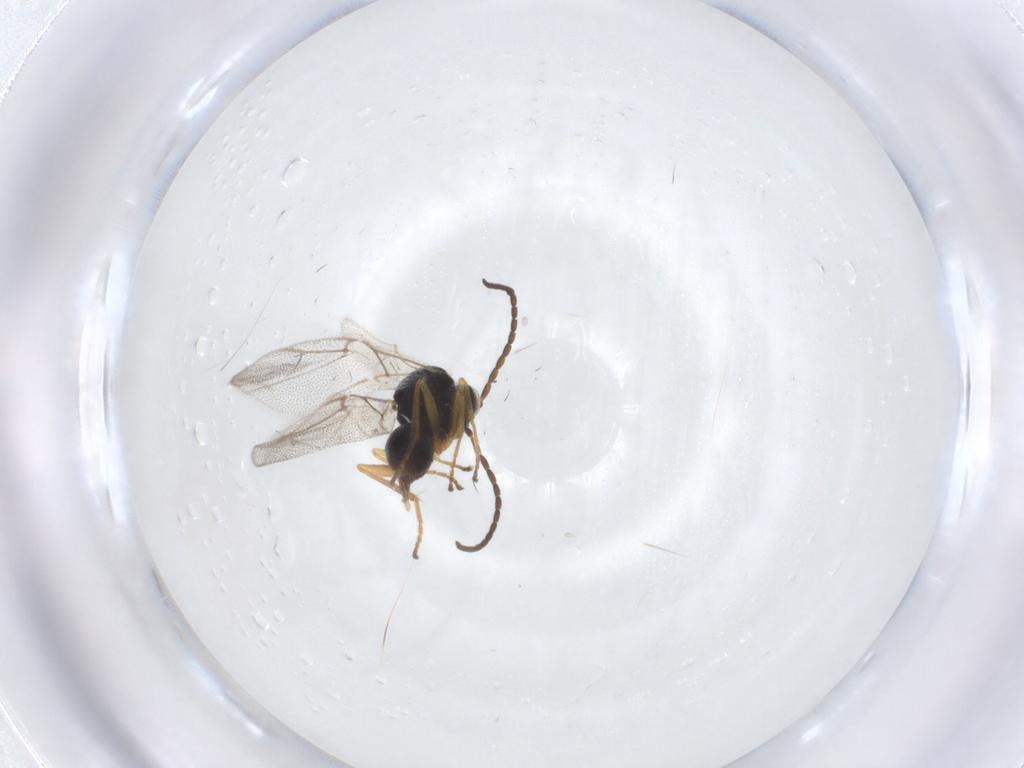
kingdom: Animalia
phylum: Arthropoda
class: Insecta
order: Hymenoptera
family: Cynipidae
